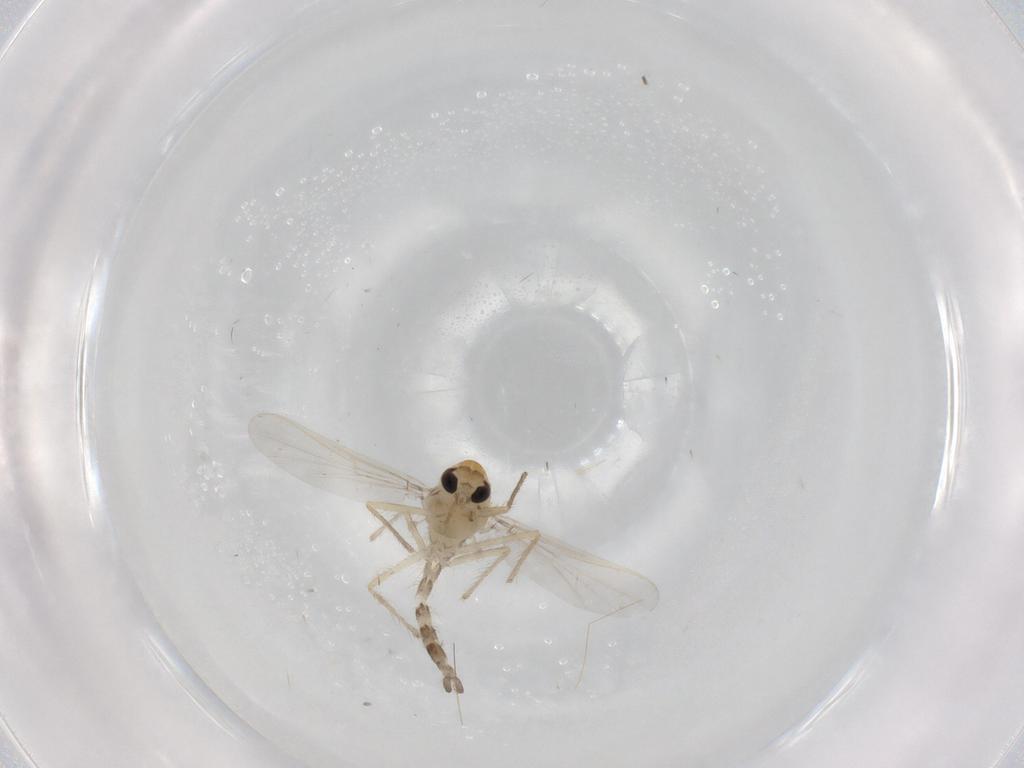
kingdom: Animalia
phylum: Arthropoda
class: Insecta
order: Diptera
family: Chironomidae
